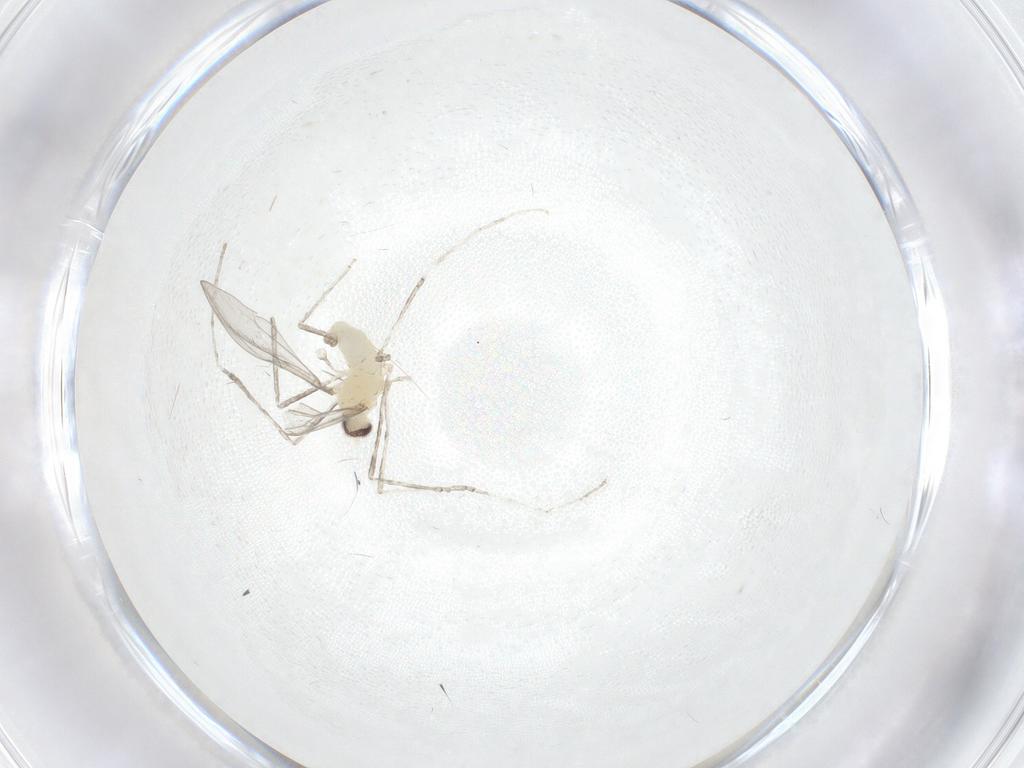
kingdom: Animalia
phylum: Arthropoda
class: Insecta
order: Diptera
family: Cecidomyiidae
